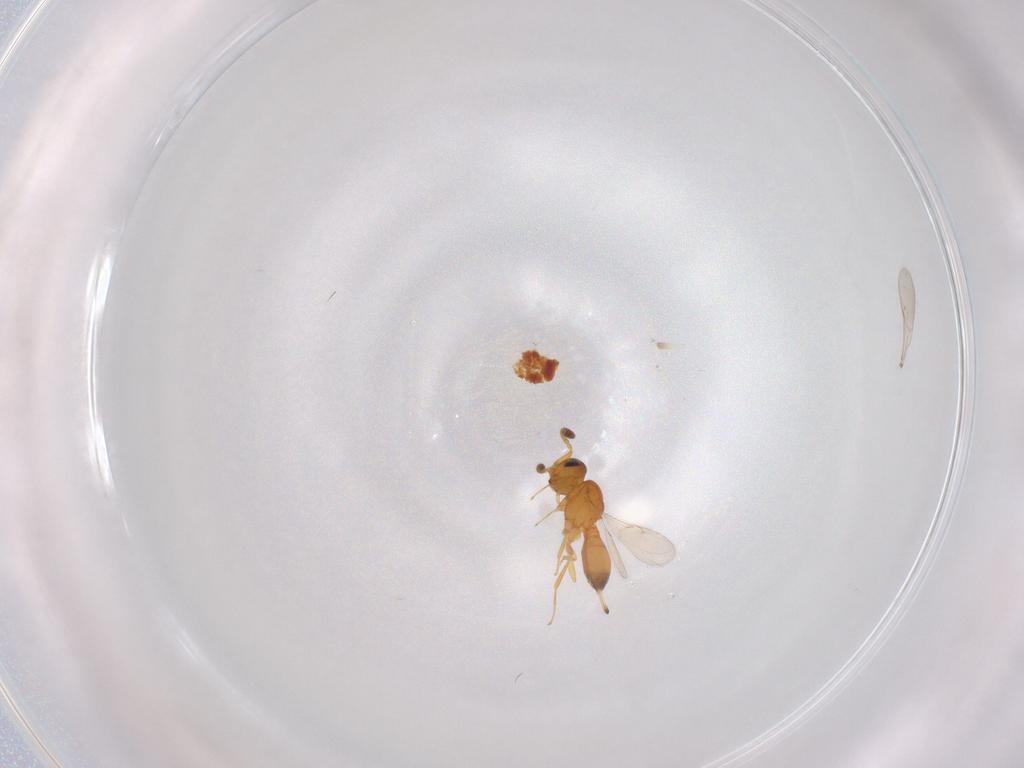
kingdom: Animalia
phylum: Arthropoda
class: Insecta
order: Hymenoptera
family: Scelionidae
